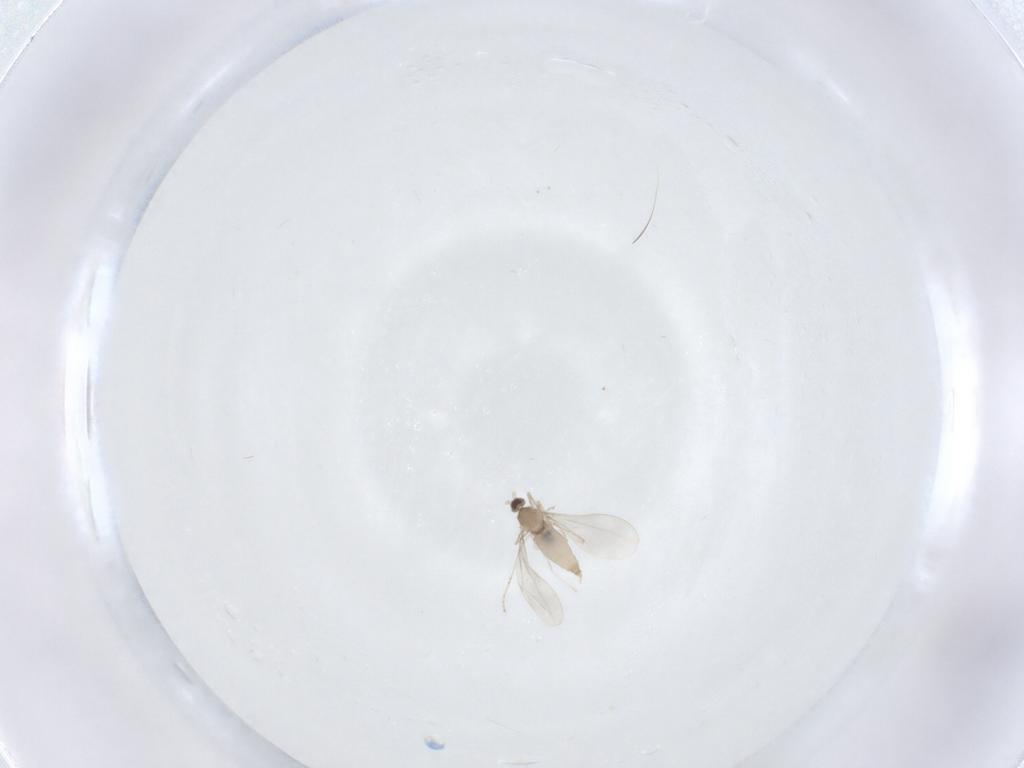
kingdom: Animalia
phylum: Arthropoda
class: Insecta
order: Diptera
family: Cecidomyiidae
